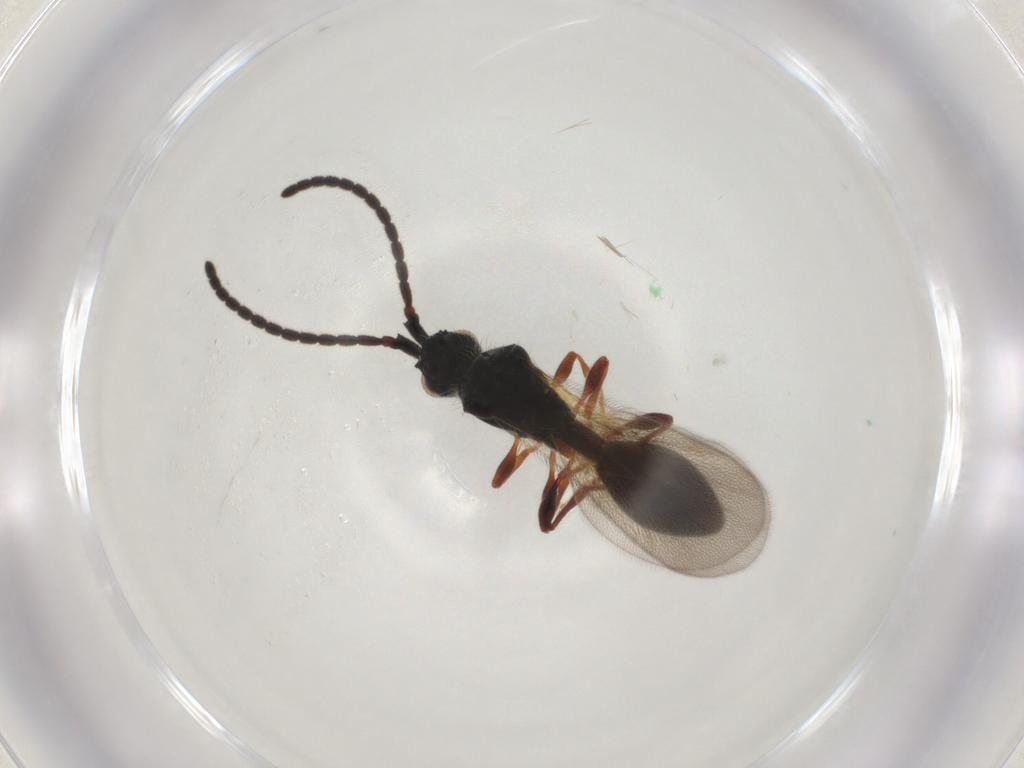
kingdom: Animalia
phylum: Arthropoda
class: Insecta
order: Hymenoptera
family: Diapriidae
